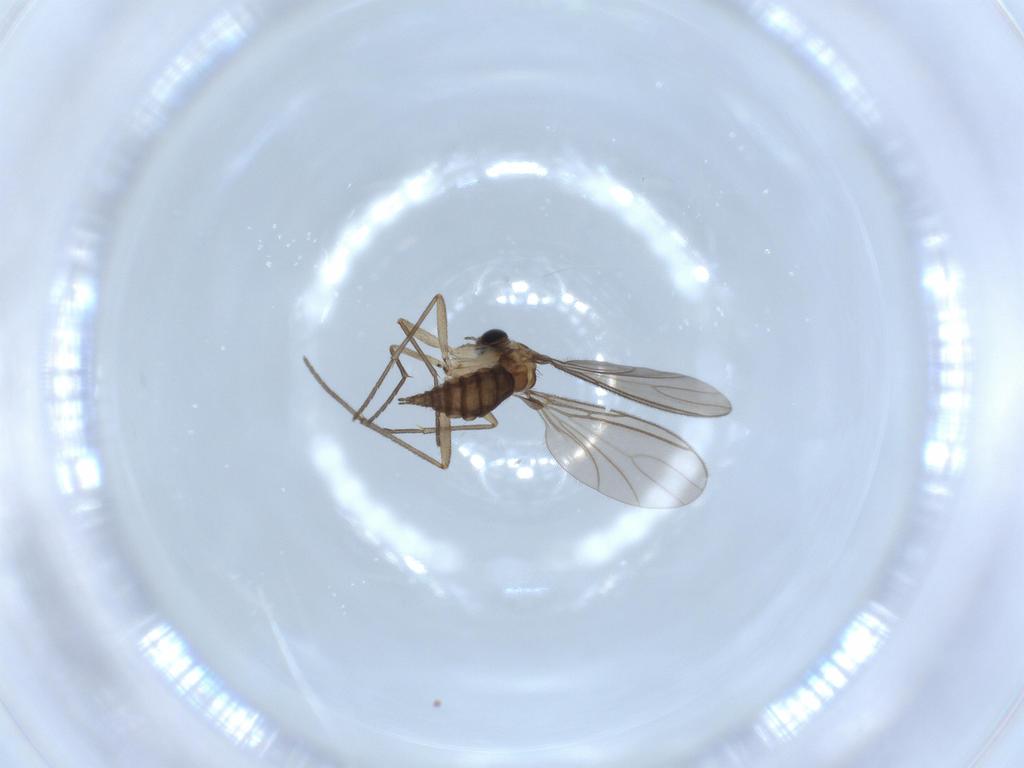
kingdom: Animalia
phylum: Arthropoda
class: Insecta
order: Diptera
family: Sciaridae
